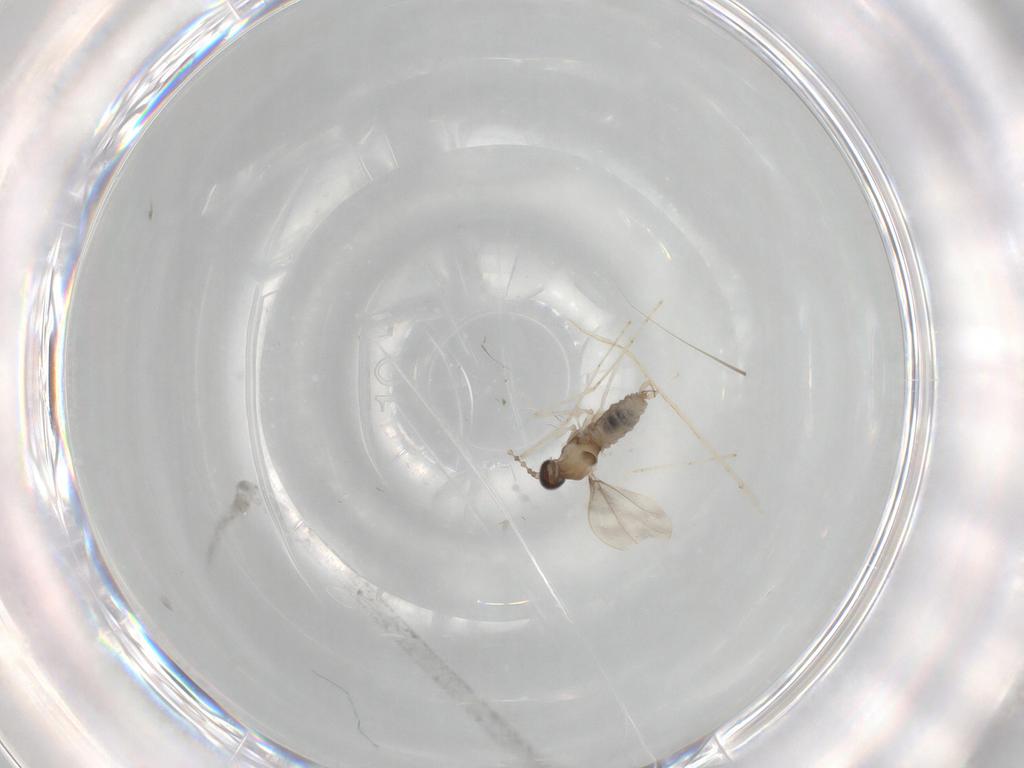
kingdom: Animalia
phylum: Arthropoda
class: Insecta
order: Diptera
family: Cecidomyiidae
